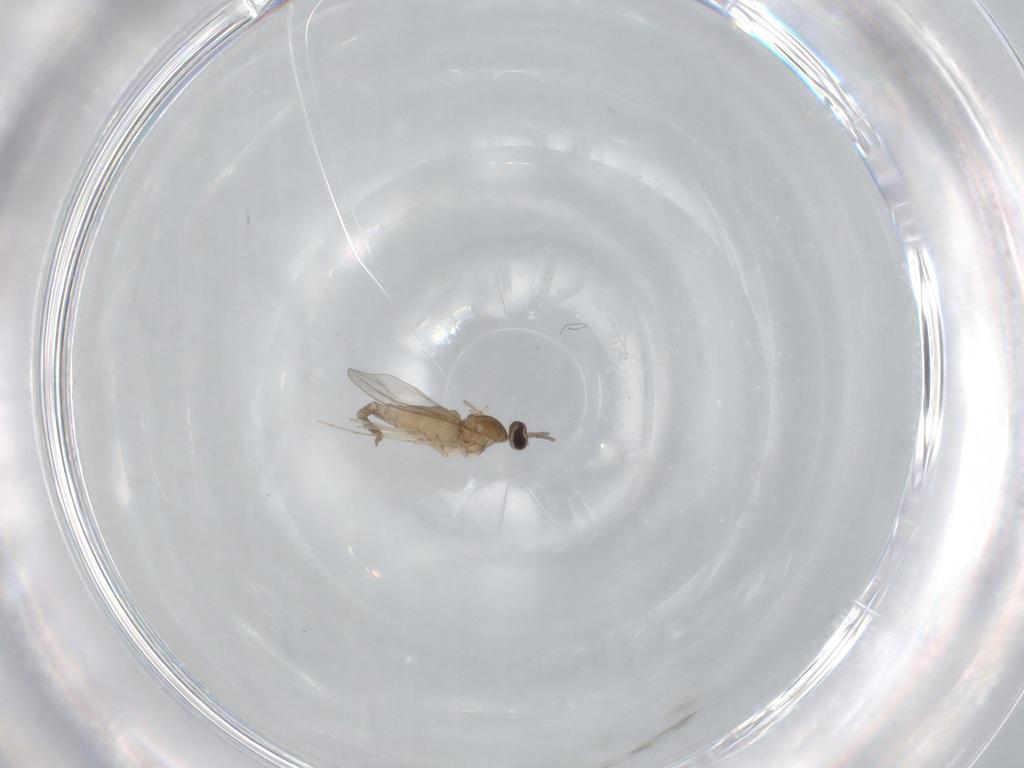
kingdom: Animalia
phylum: Arthropoda
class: Insecta
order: Diptera
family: Cecidomyiidae
